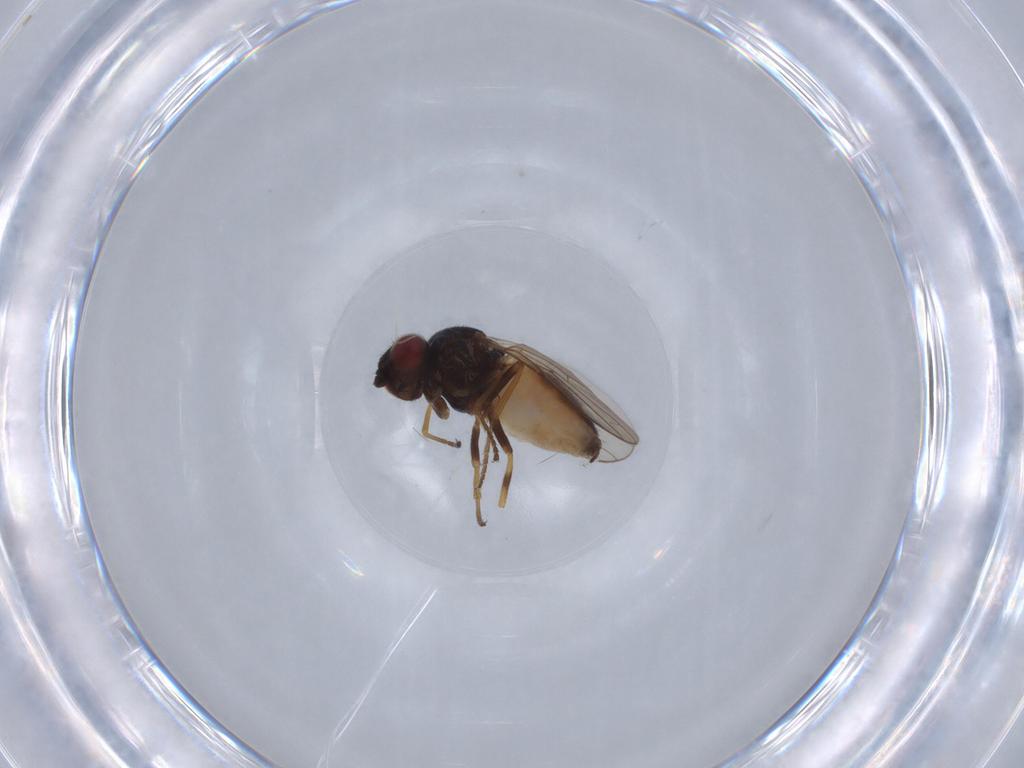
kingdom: Animalia
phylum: Arthropoda
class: Insecta
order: Diptera
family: Chloropidae
